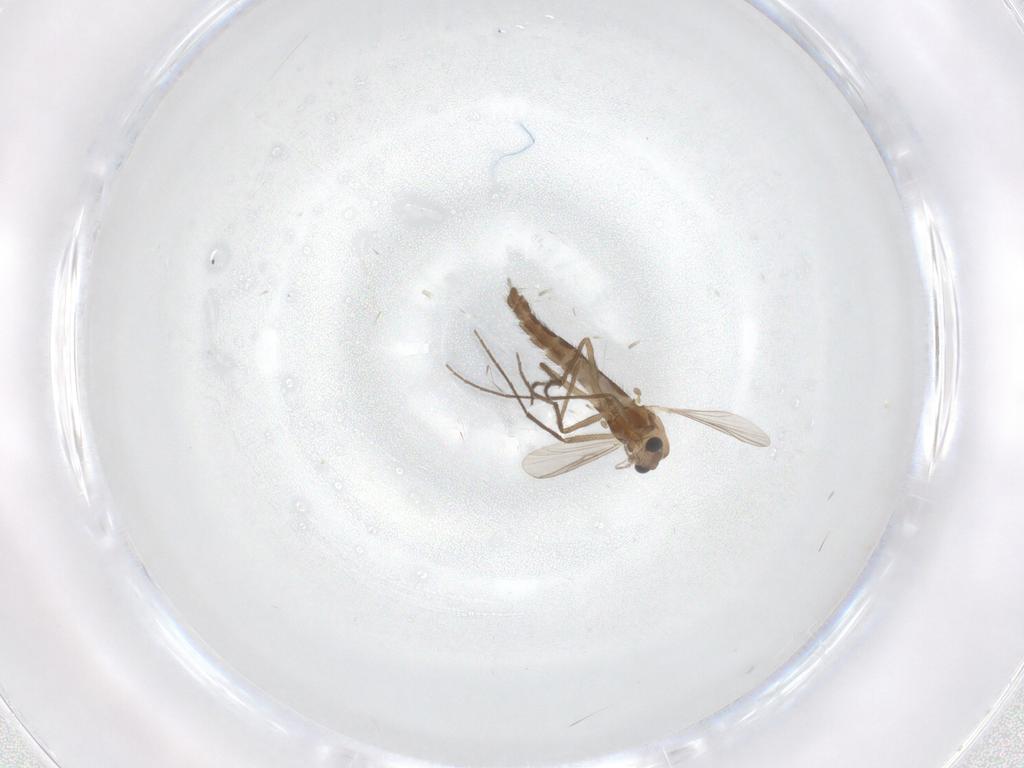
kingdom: Animalia
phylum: Arthropoda
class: Insecta
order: Diptera
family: Chironomidae
